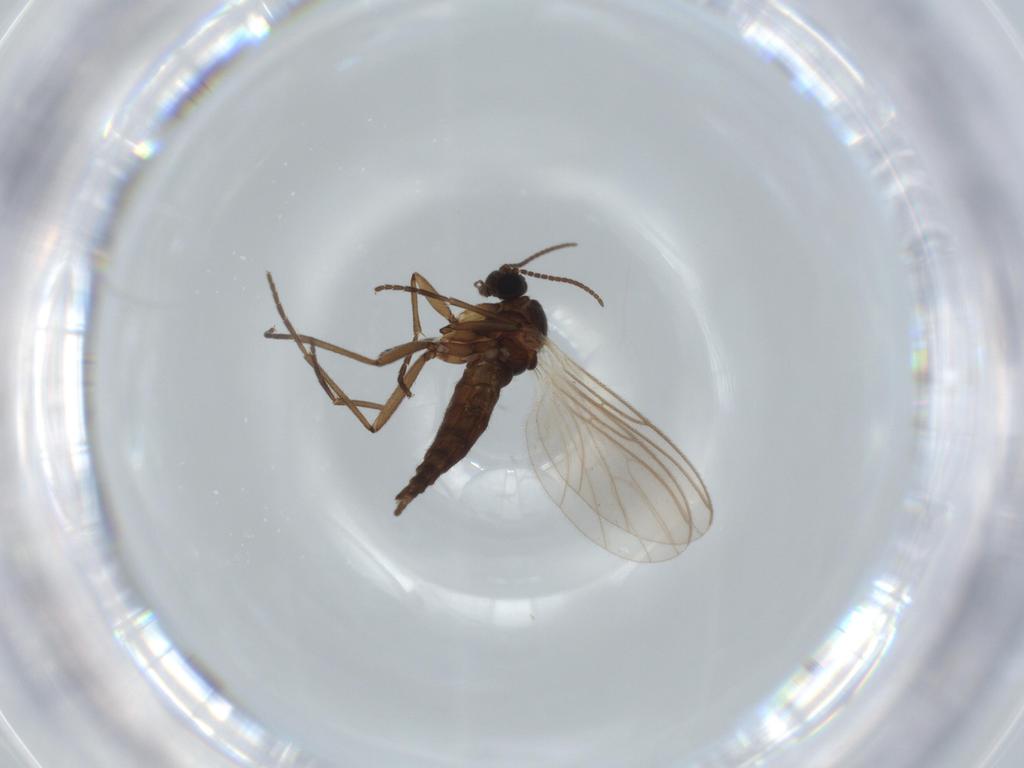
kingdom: Animalia
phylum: Arthropoda
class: Insecta
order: Diptera
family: Sciaridae
